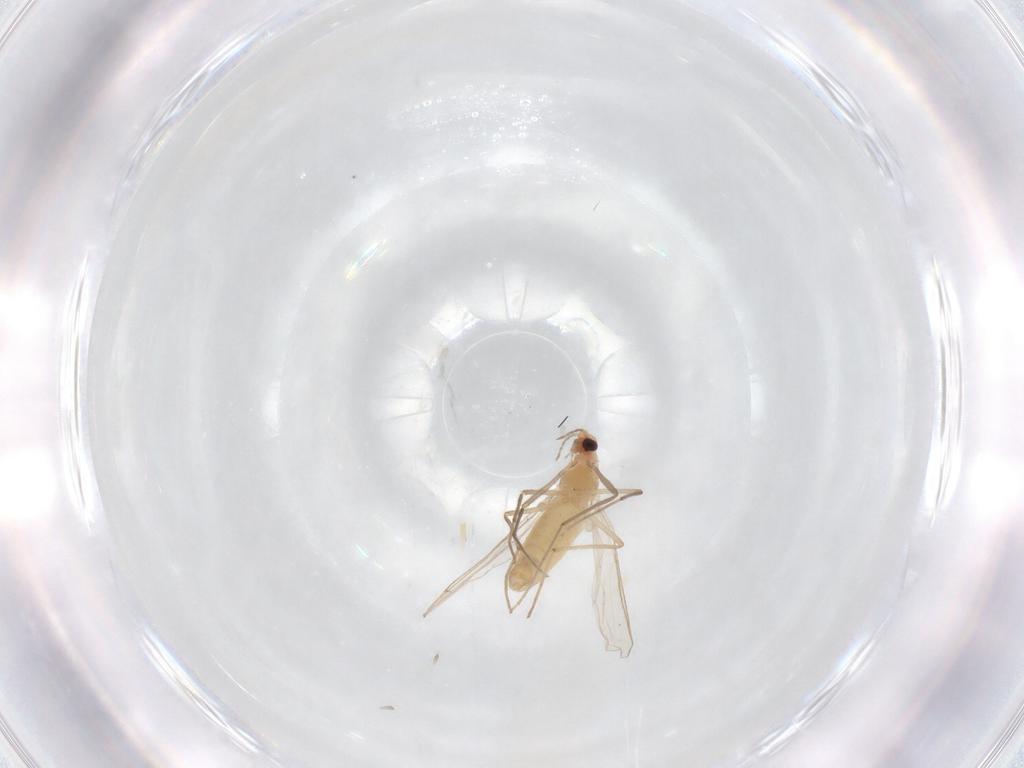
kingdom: Animalia
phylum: Arthropoda
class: Insecta
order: Diptera
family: Chironomidae
